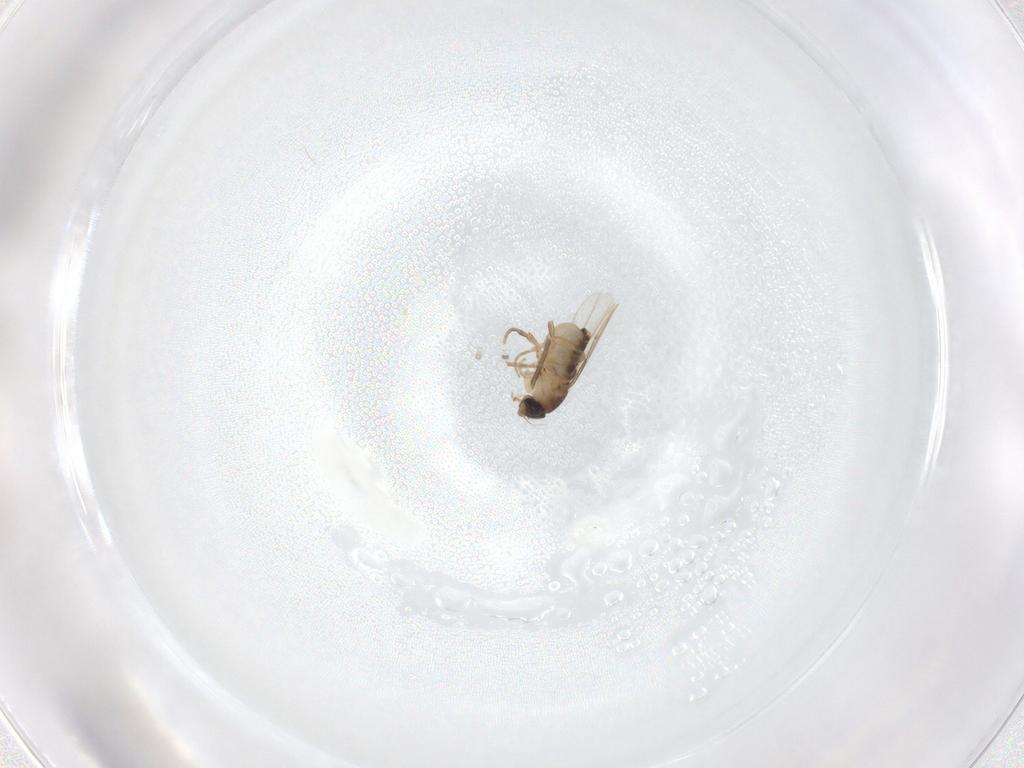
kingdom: Animalia
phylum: Arthropoda
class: Insecta
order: Diptera
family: Mycetophilidae
